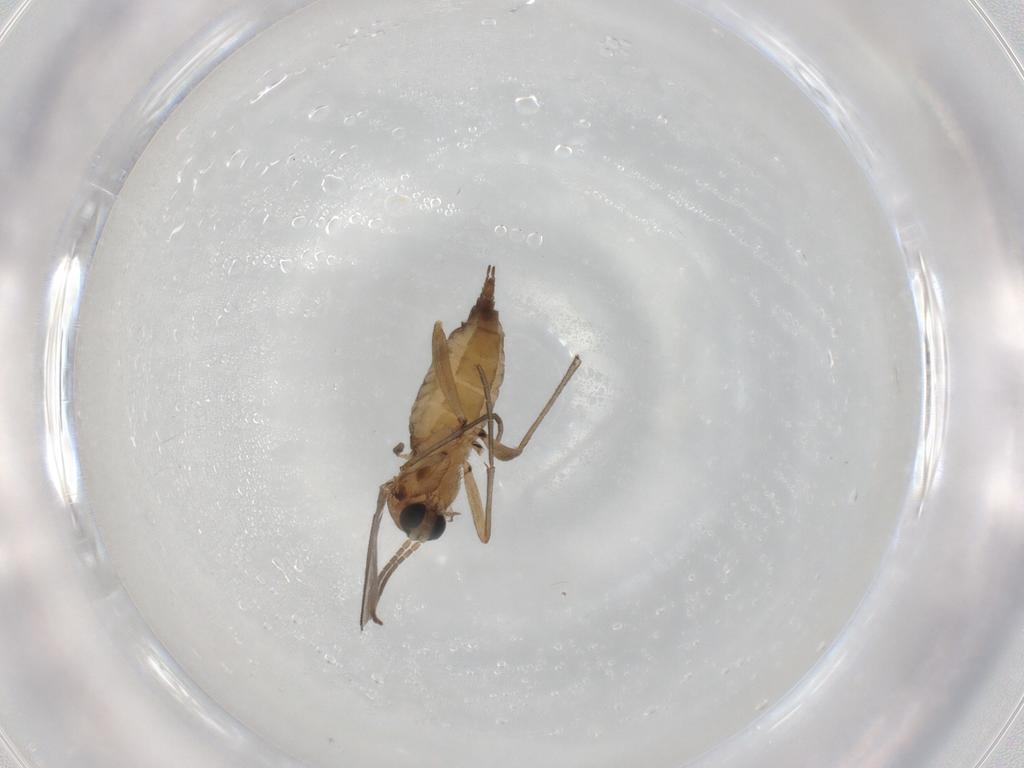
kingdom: Animalia
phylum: Arthropoda
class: Insecta
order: Diptera
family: Sciaridae
